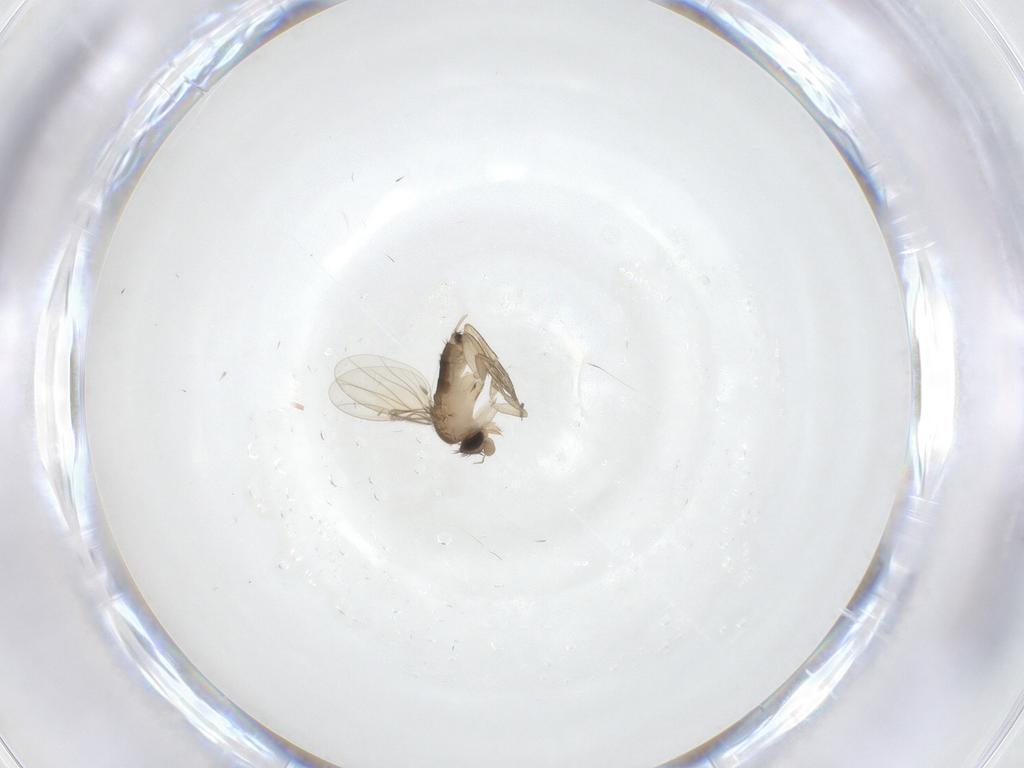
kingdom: Animalia
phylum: Arthropoda
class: Insecta
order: Diptera
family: Phoridae
